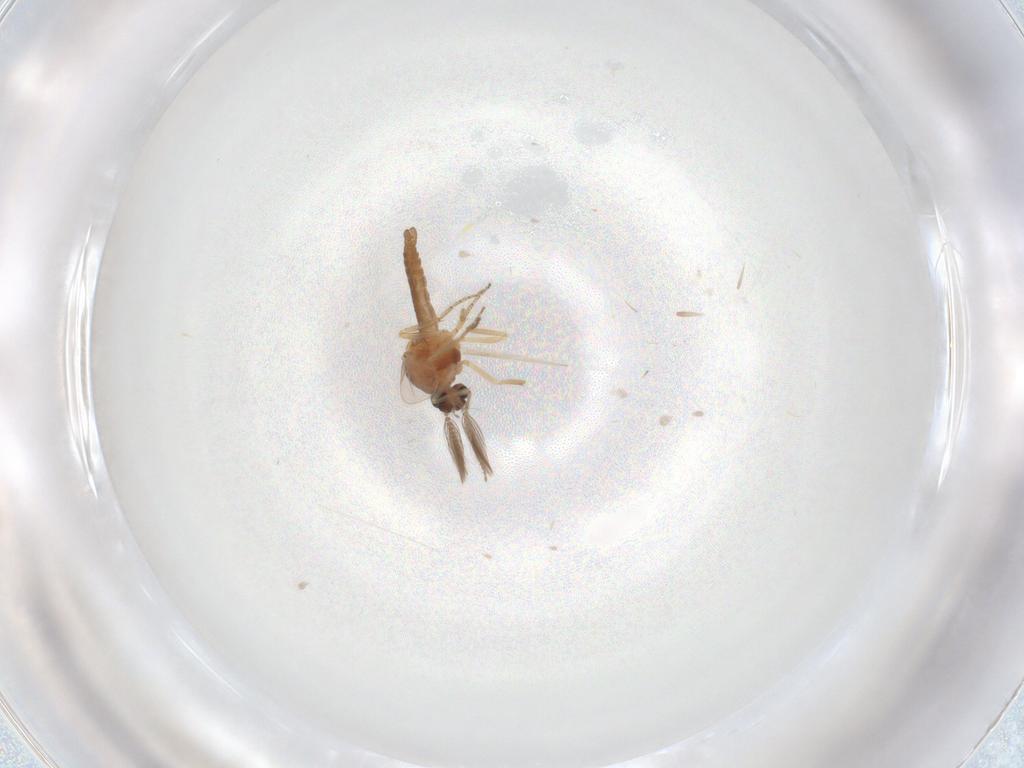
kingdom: Animalia
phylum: Arthropoda
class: Insecta
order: Diptera
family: Ceratopogonidae
